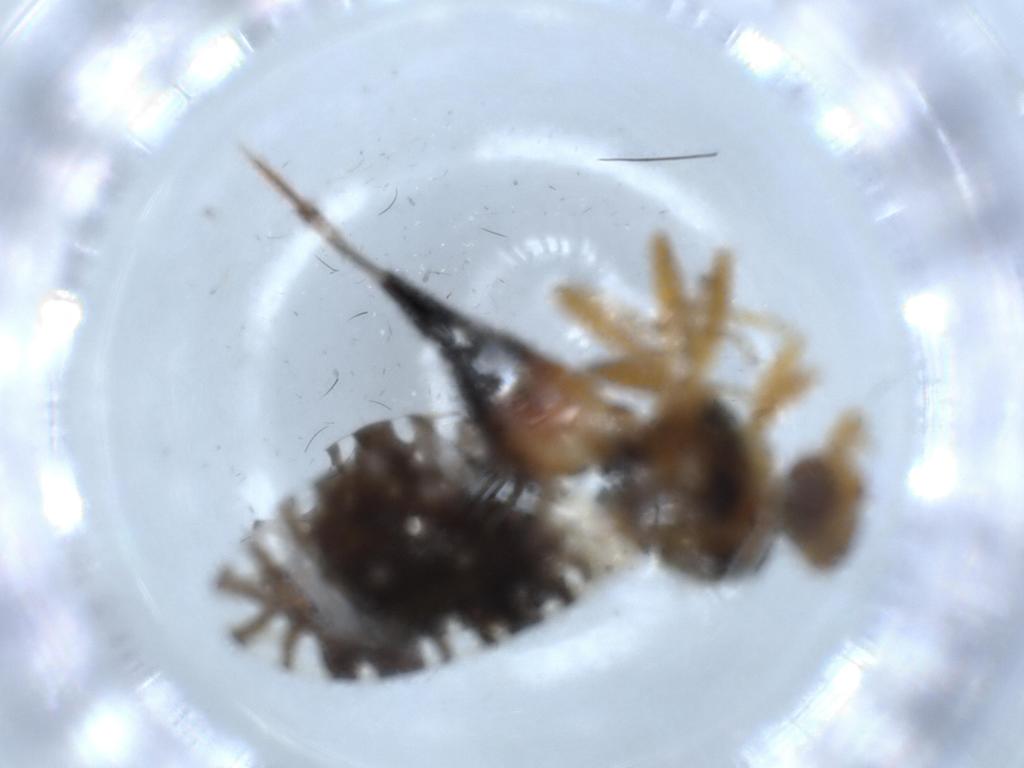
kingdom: Animalia
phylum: Arthropoda
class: Insecta
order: Diptera
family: Tephritidae
